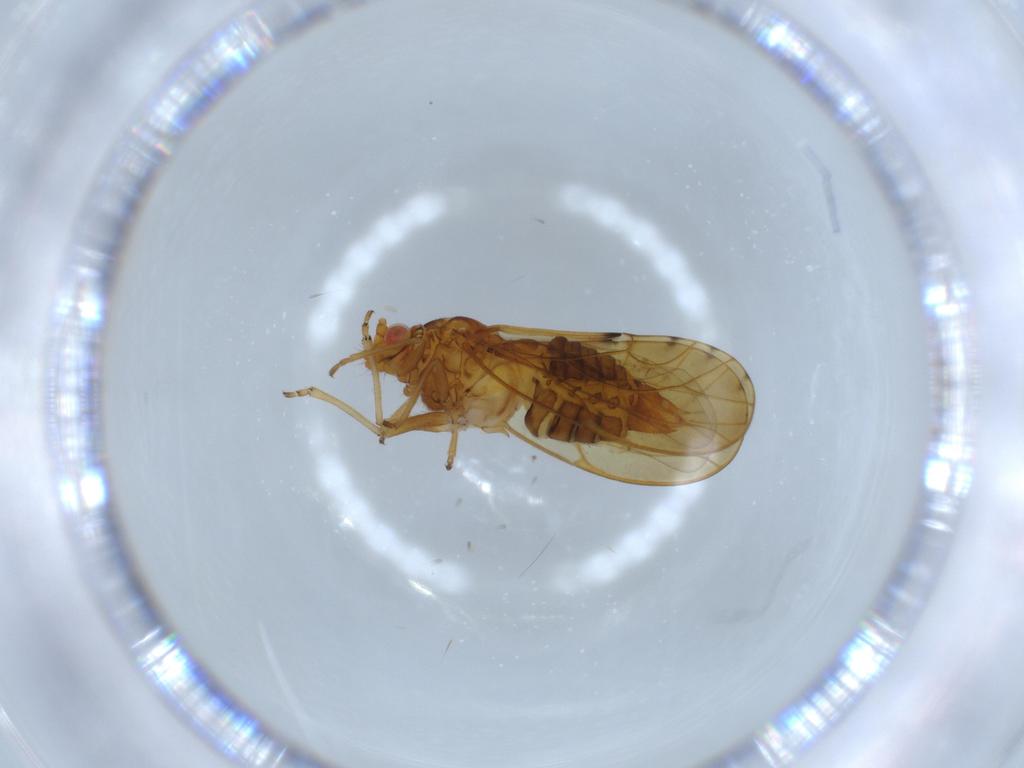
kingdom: Animalia
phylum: Arthropoda
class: Insecta
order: Hemiptera
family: Psylloidea_incertae_sedis
